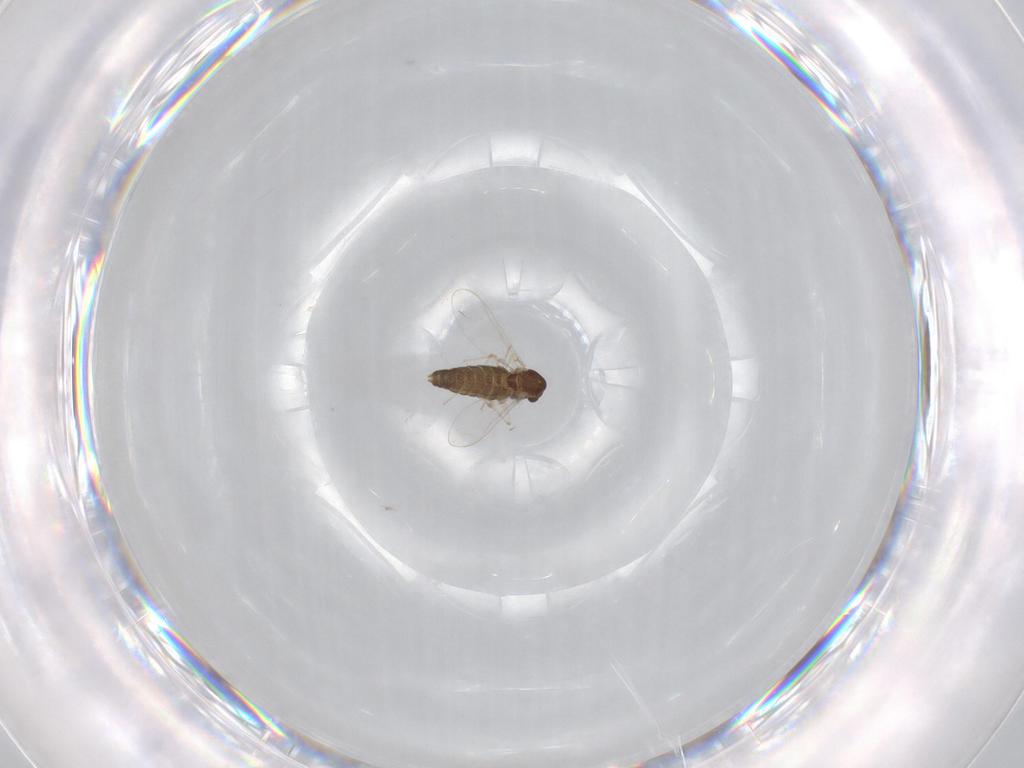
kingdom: Animalia
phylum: Arthropoda
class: Insecta
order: Diptera
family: Chironomidae
